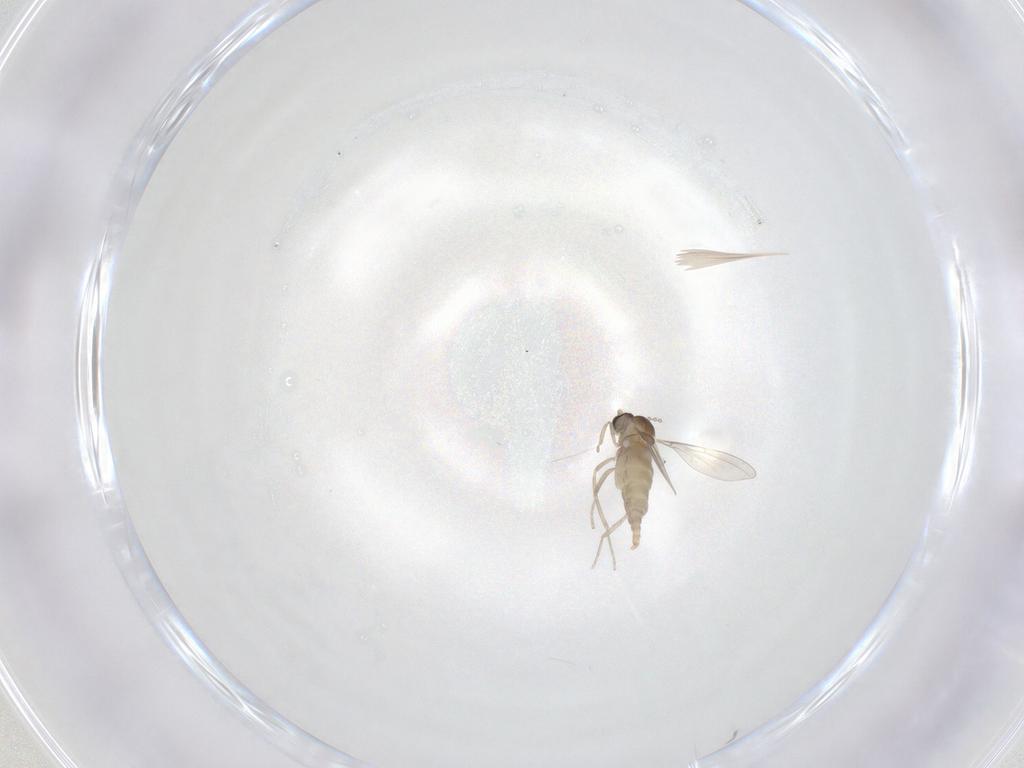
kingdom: Animalia
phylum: Arthropoda
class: Insecta
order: Diptera
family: Cecidomyiidae
